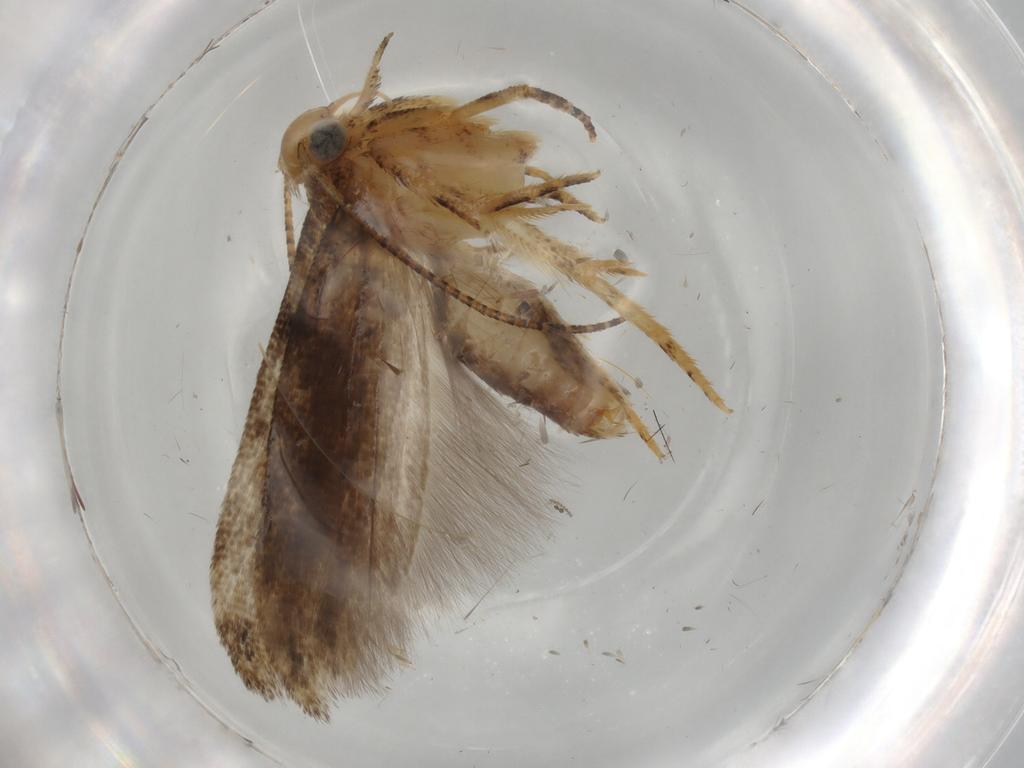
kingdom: Animalia
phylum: Arthropoda
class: Insecta
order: Lepidoptera
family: Gelechiidae
